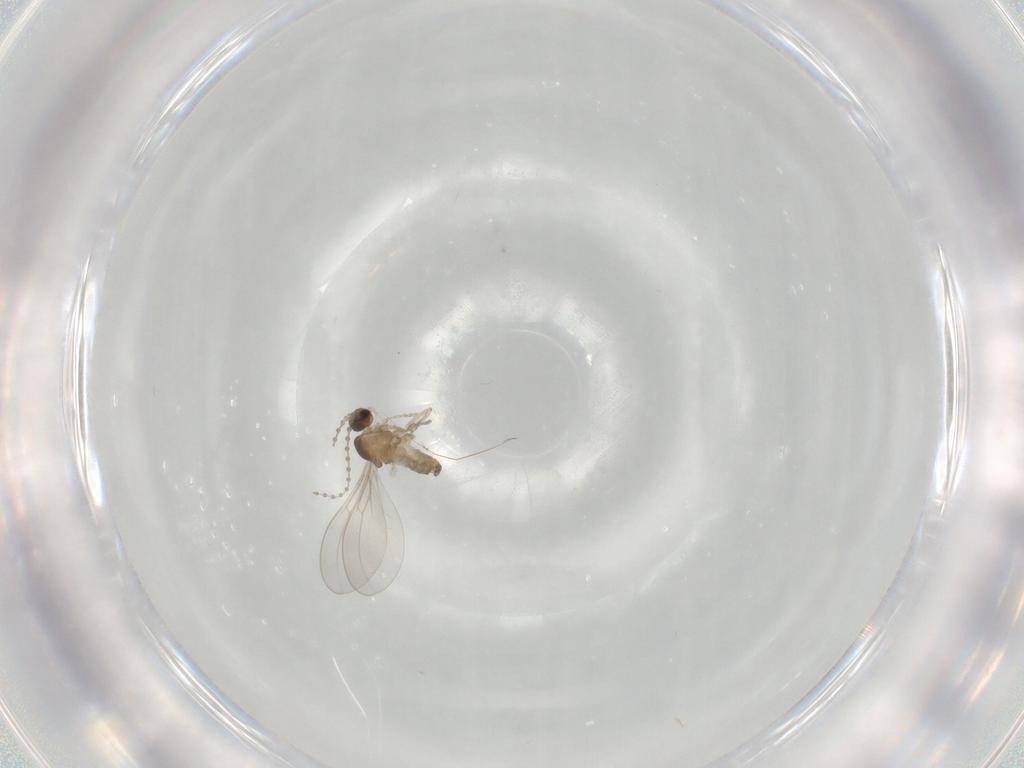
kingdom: Animalia
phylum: Arthropoda
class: Insecta
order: Diptera
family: Cecidomyiidae
